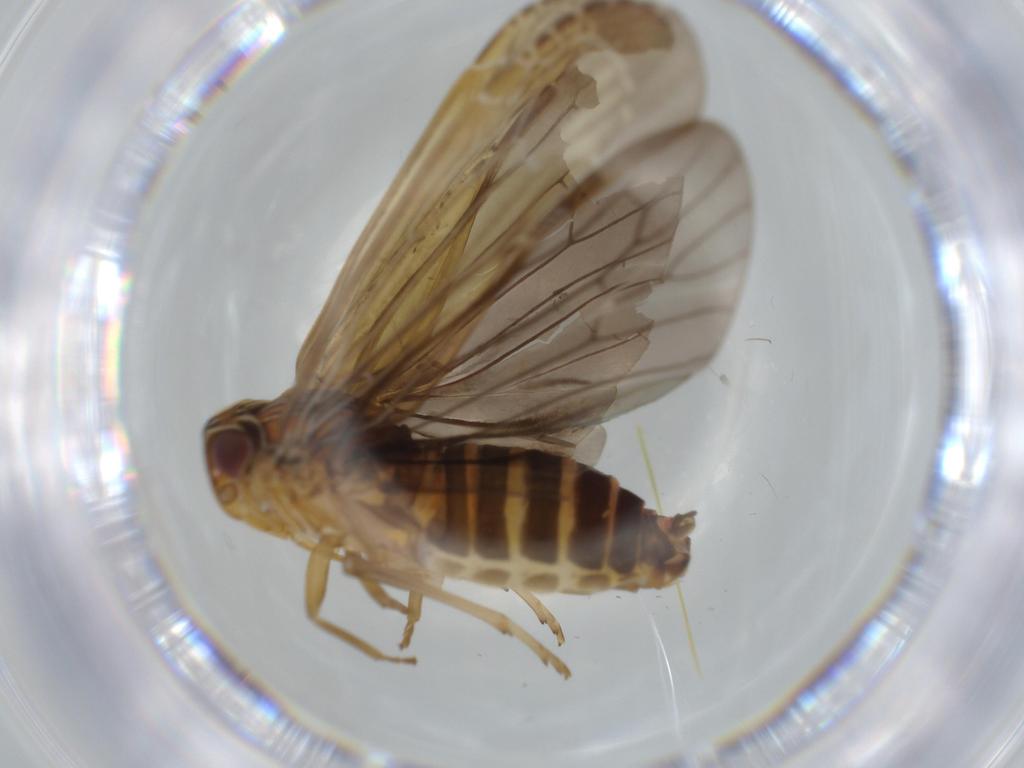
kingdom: Animalia
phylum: Arthropoda
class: Insecta
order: Hemiptera
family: Achilidae
